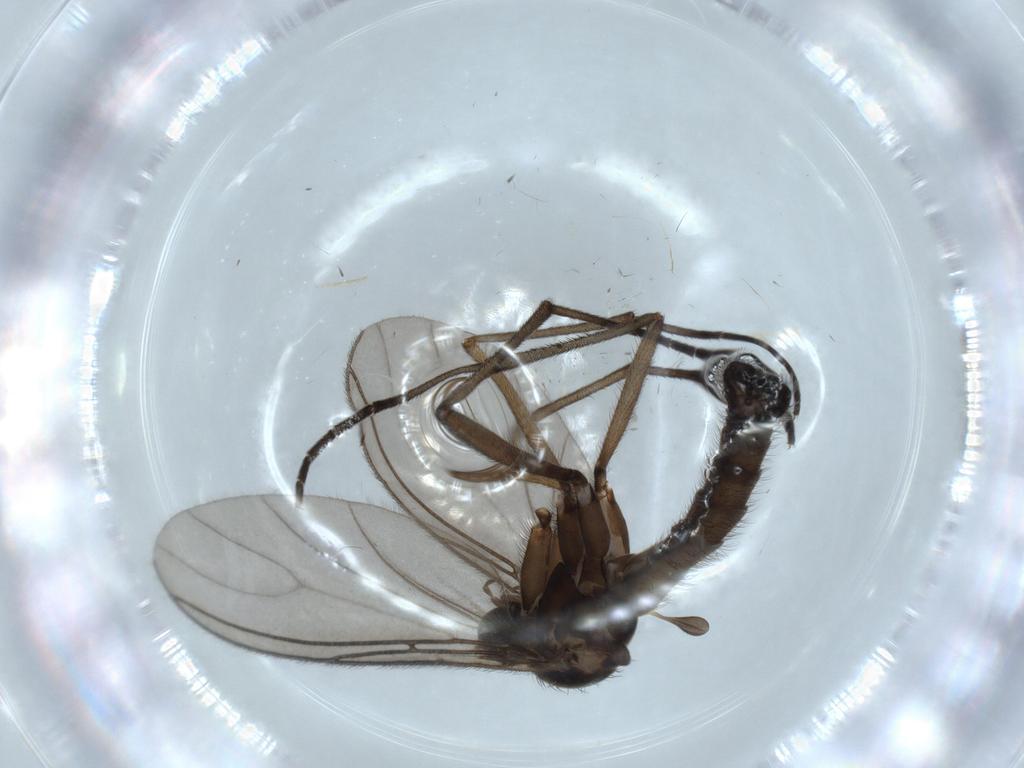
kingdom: Animalia
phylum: Arthropoda
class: Insecta
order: Diptera
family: Sciaridae
